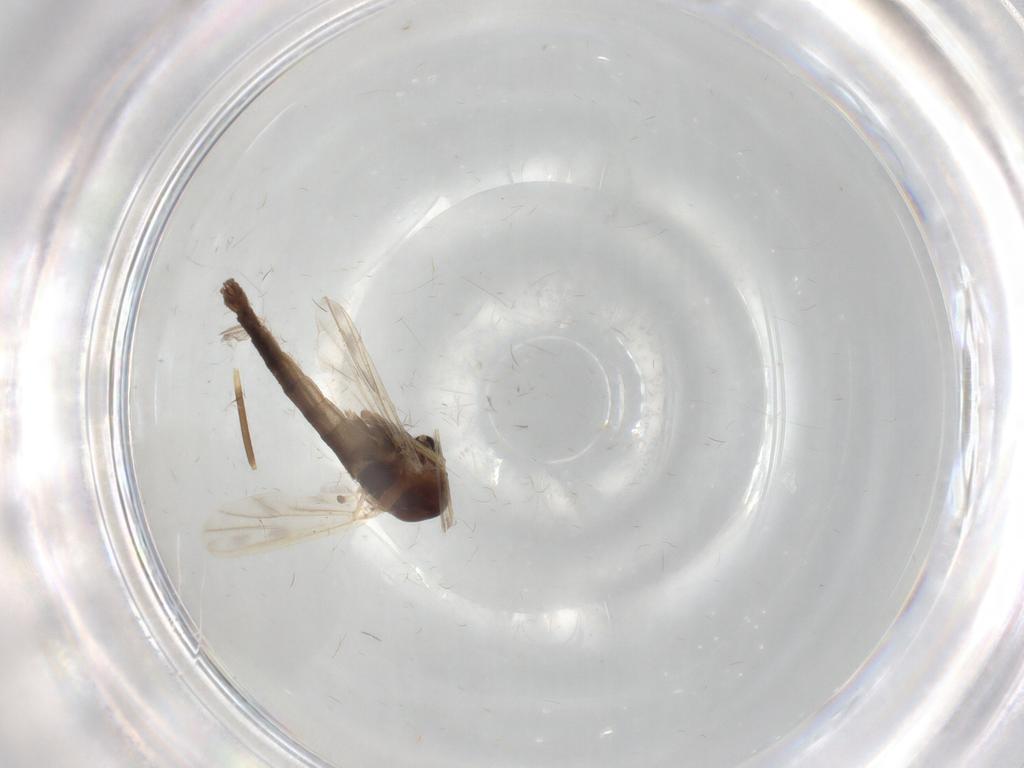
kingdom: Animalia
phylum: Arthropoda
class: Insecta
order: Diptera
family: Chironomidae
